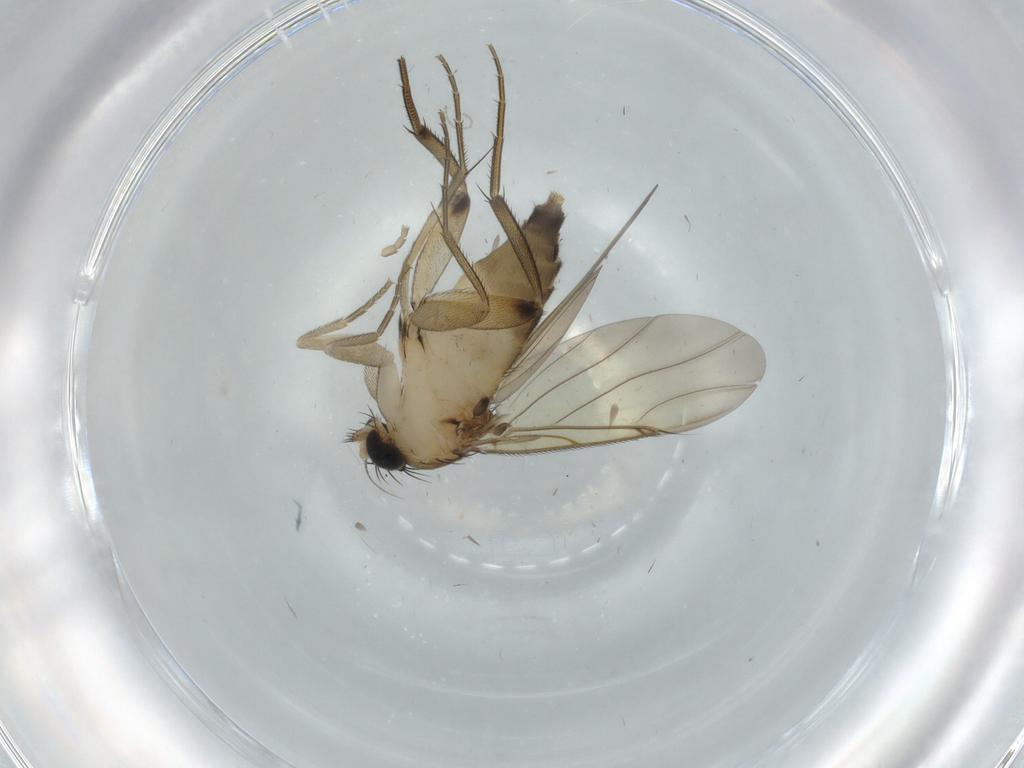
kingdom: Animalia
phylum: Arthropoda
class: Insecta
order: Diptera
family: Phoridae
